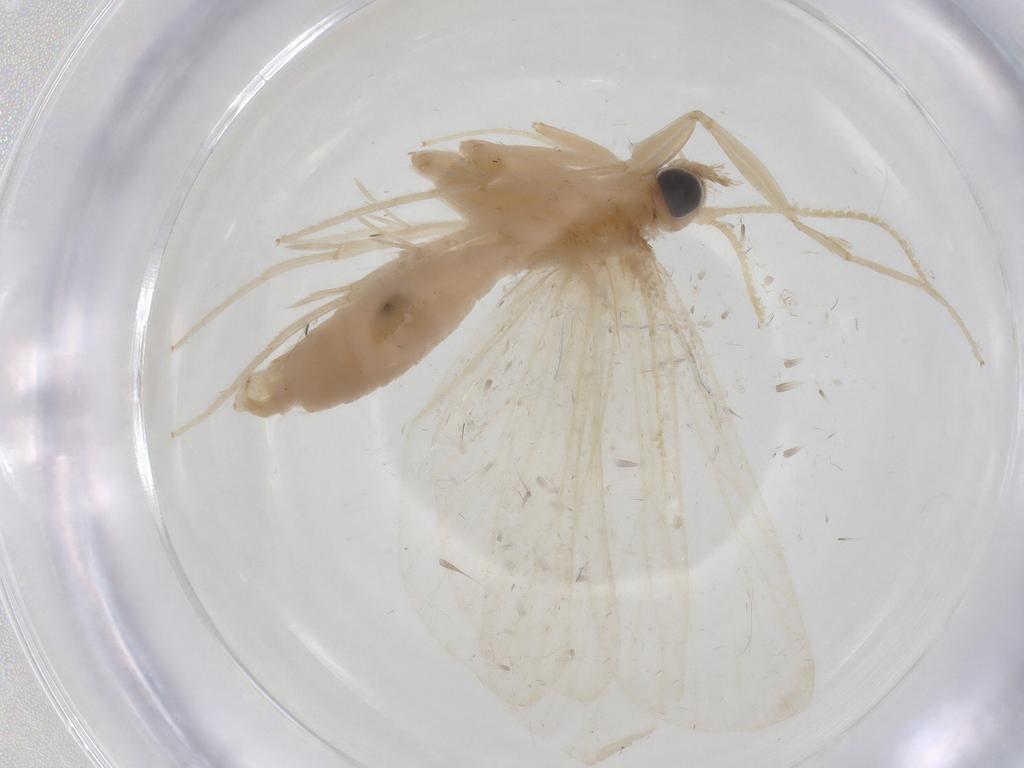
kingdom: Animalia
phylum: Arthropoda
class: Insecta
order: Lepidoptera
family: Crambidae
